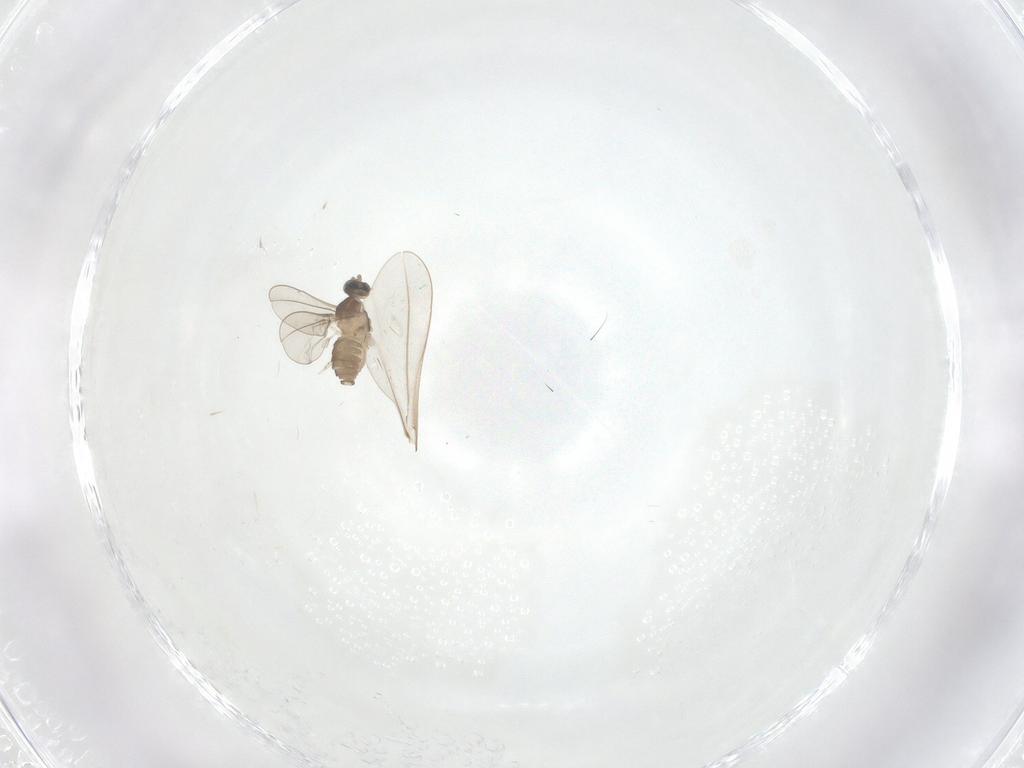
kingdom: Animalia
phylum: Arthropoda
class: Insecta
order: Diptera
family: Cecidomyiidae
